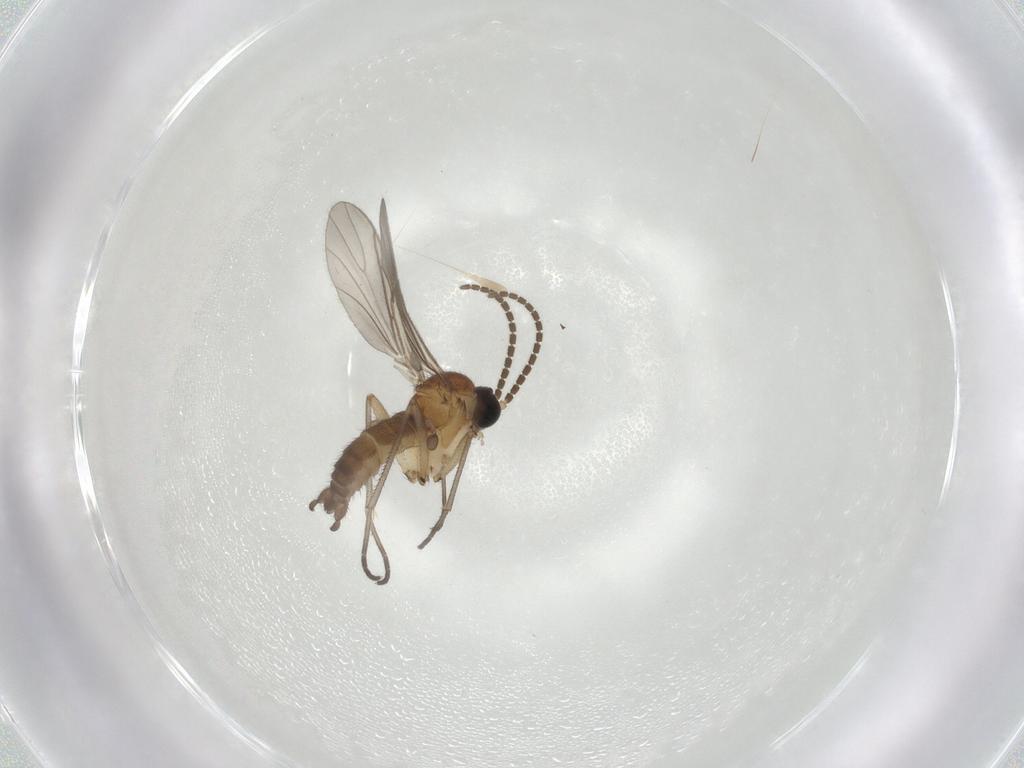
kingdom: Animalia
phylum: Arthropoda
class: Insecta
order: Diptera
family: Sciaridae
